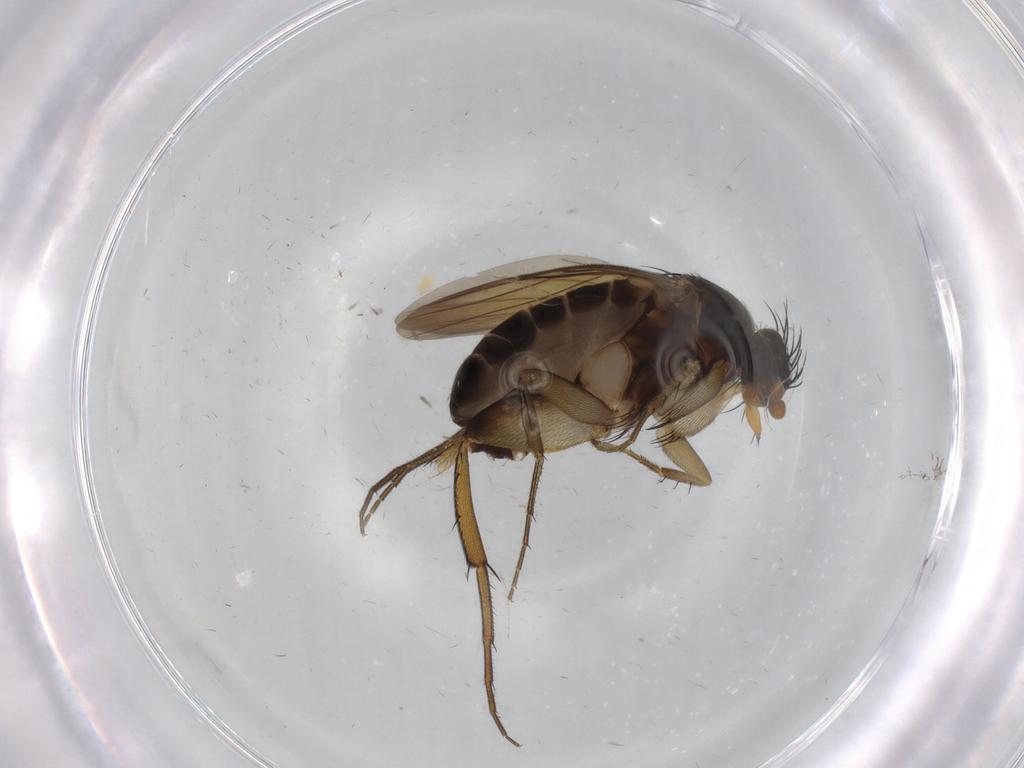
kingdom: Animalia
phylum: Arthropoda
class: Insecta
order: Diptera
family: Phoridae
